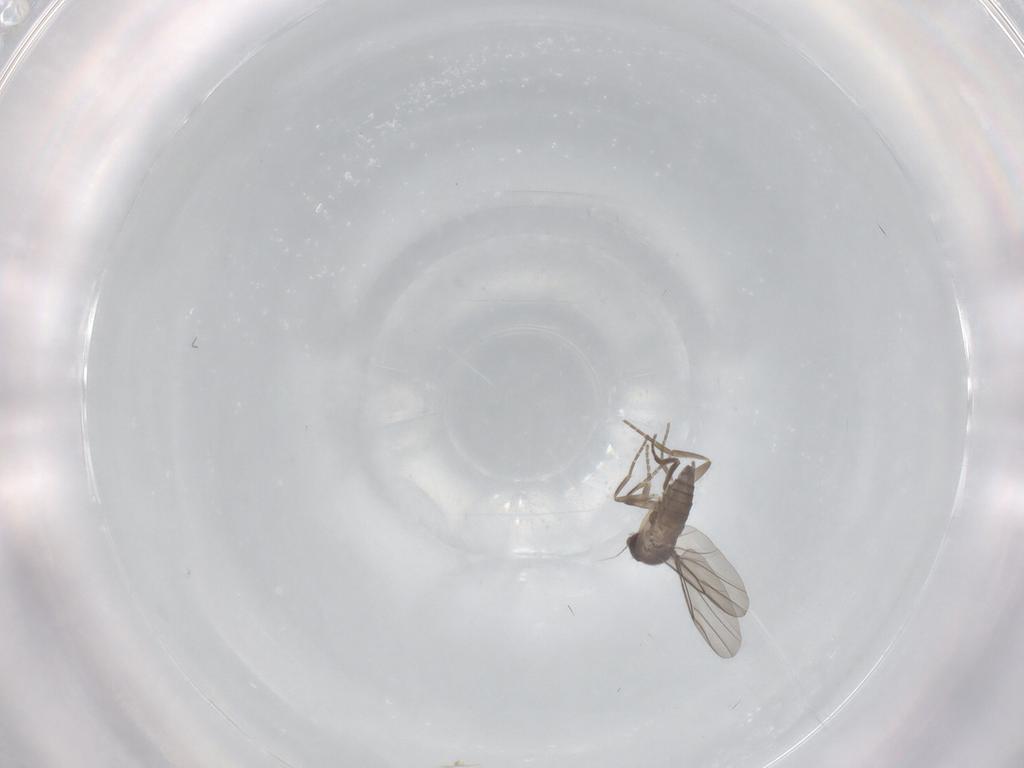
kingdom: Animalia
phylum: Arthropoda
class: Insecta
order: Diptera
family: Phoridae
